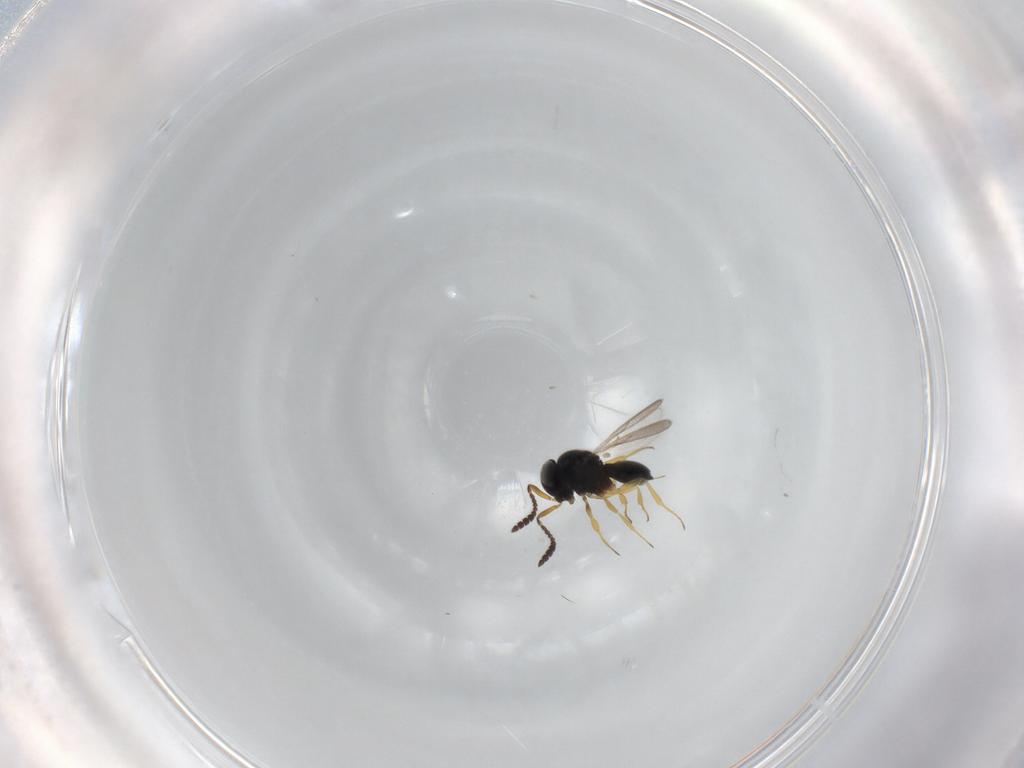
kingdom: Animalia
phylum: Arthropoda
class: Insecta
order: Hymenoptera
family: Scelionidae
